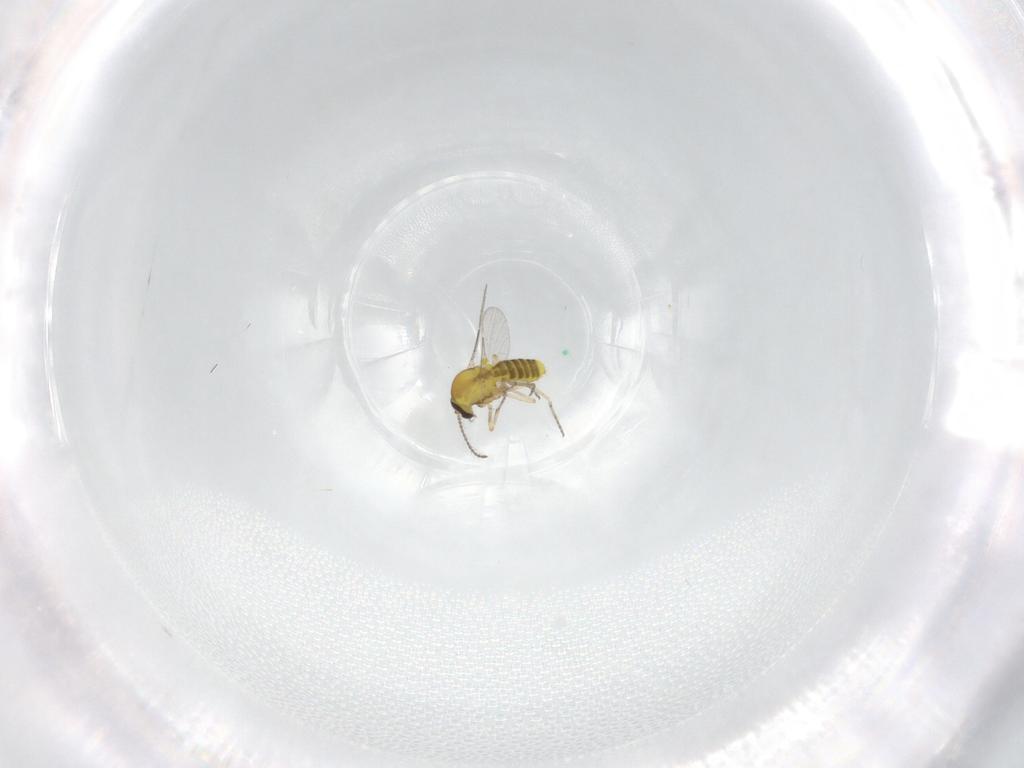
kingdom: Animalia
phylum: Arthropoda
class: Insecta
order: Diptera
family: Ceratopogonidae
